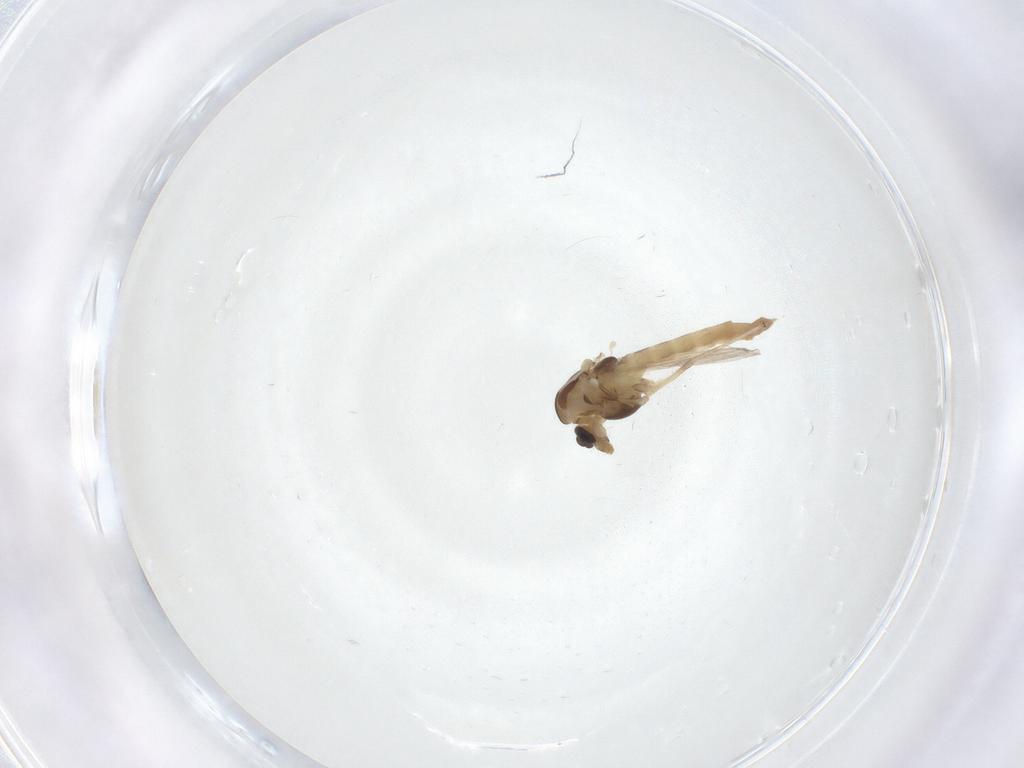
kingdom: Animalia
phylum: Arthropoda
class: Insecta
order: Diptera
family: Chironomidae
